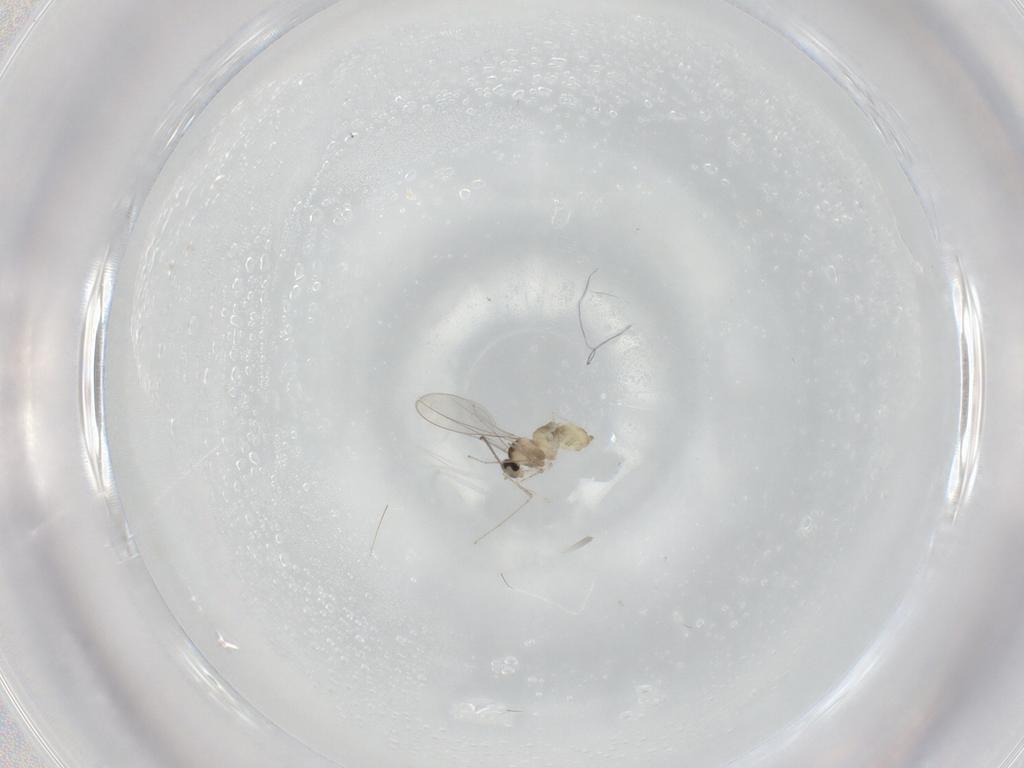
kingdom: Animalia
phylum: Arthropoda
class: Insecta
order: Diptera
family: Cecidomyiidae
